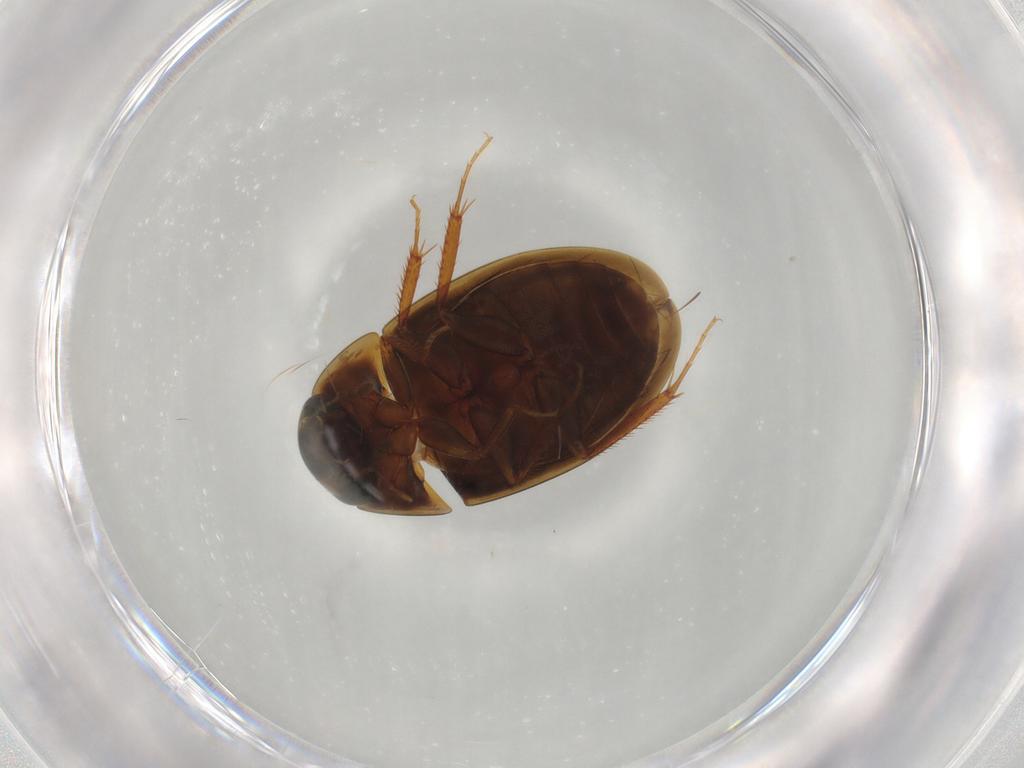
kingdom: Animalia
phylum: Arthropoda
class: Insecta
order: Coleoptera
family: Hydrophilidae
